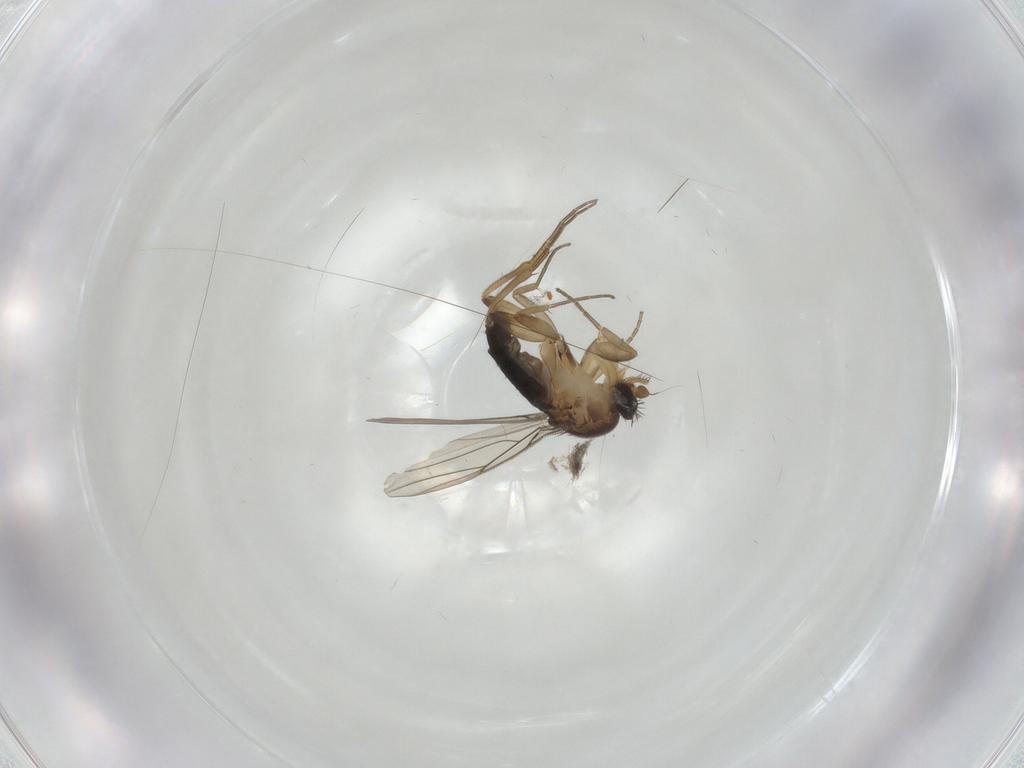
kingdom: Animalia
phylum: Arthropoda
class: Insecta
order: Diptera
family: Phoridae
